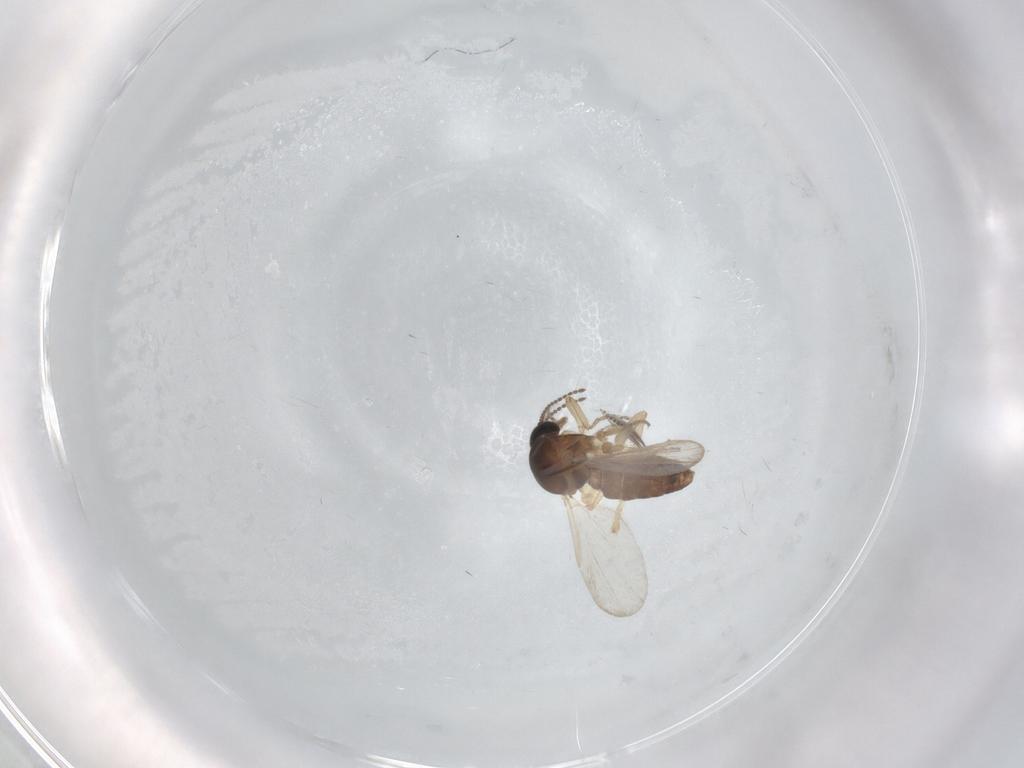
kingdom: Animalia
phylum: Arthropoda
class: Insecta
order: Diptera
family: Ceratopogonidae
